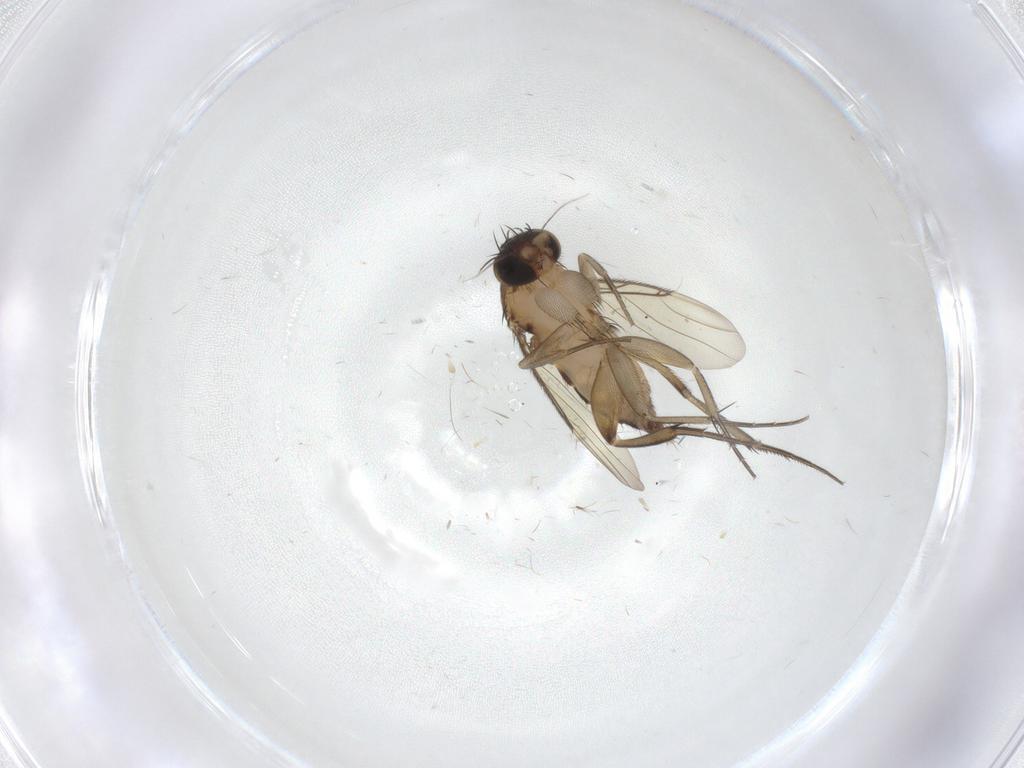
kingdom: Animalia
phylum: Arthropoda
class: Insecta
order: Diptera
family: Phoridae
